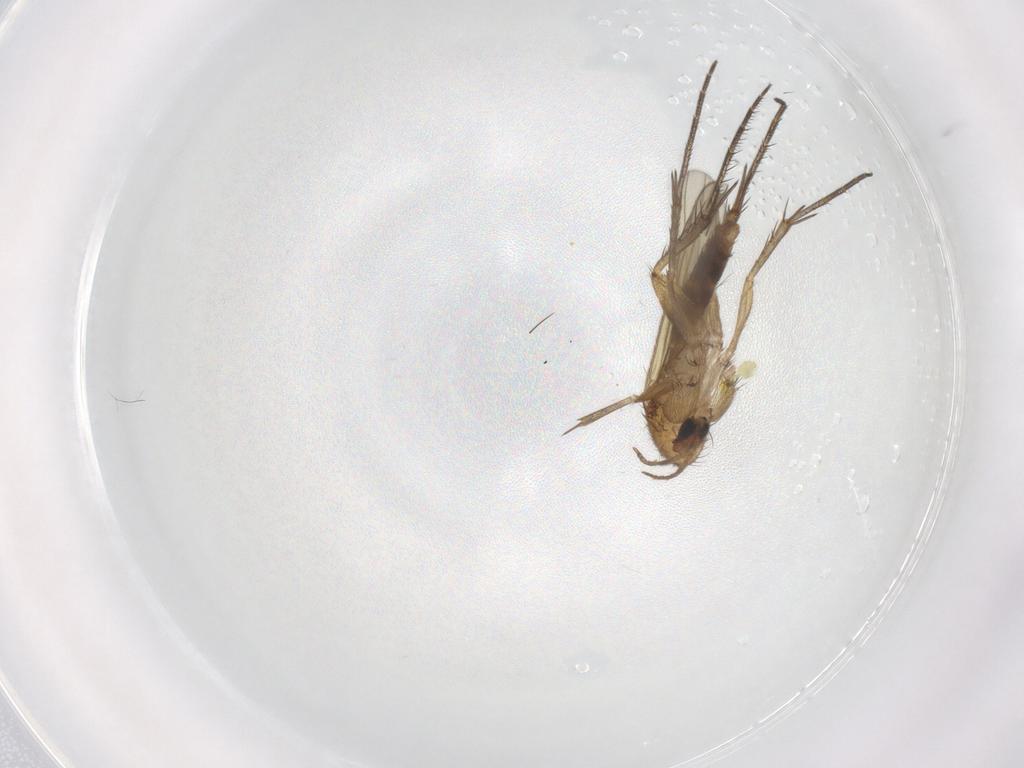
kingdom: Animalia
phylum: Arthropoda
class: Insecta
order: Diptera
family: Mycetophilidae
